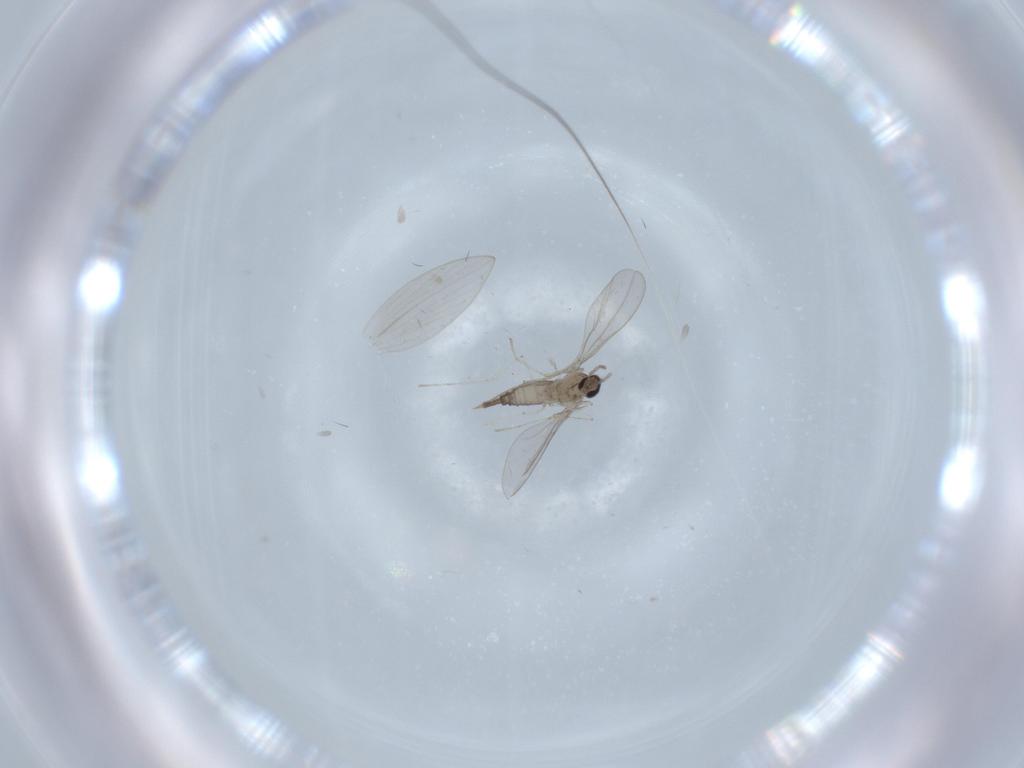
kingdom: Animalia
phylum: Arthropoda
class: Insecta
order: Diptera
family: Cecidomyiidae
